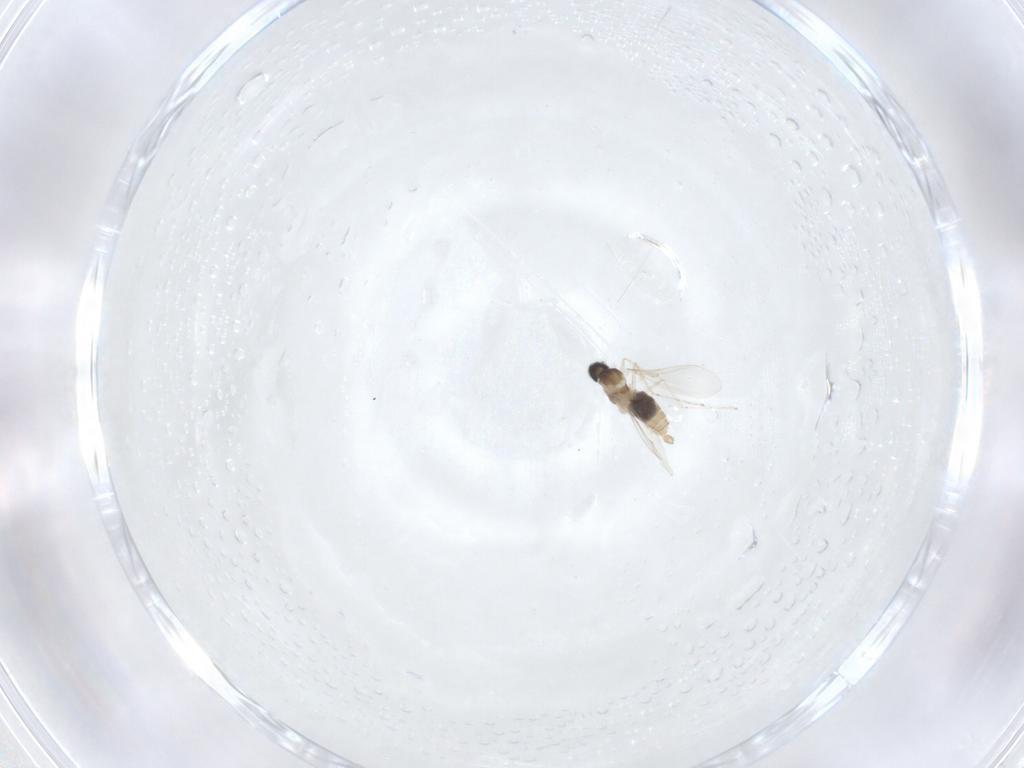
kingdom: Animalia
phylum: Arthropoda
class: Insecta
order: Diptera
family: Cecidomyiidae
